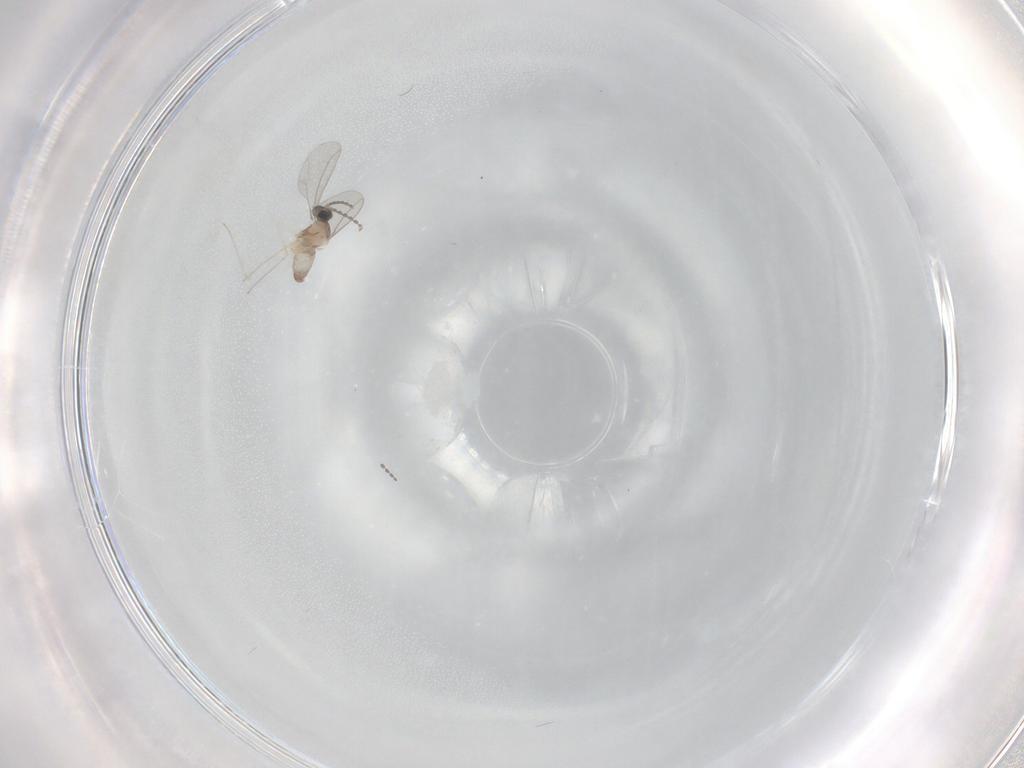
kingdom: Animalia
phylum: Arthropoda
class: Insecta
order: Diptera
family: Cecidomyiidae
